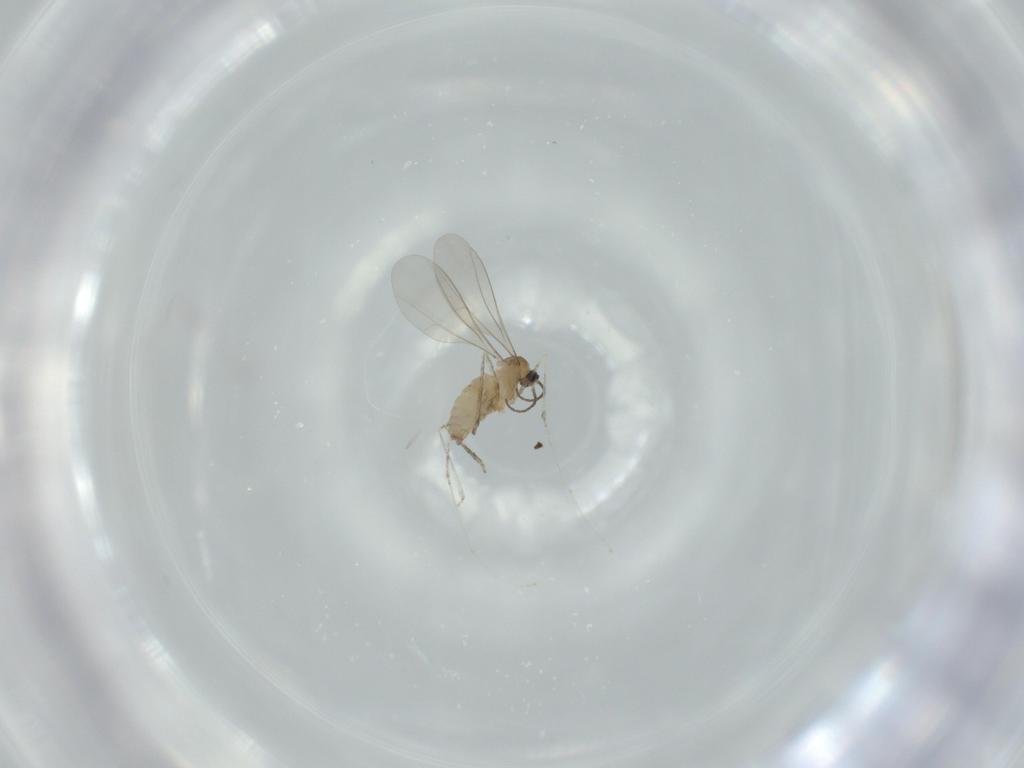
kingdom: Animalia
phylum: Arthropoda
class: Insecta
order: Diptera
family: Cecidomyiidae
